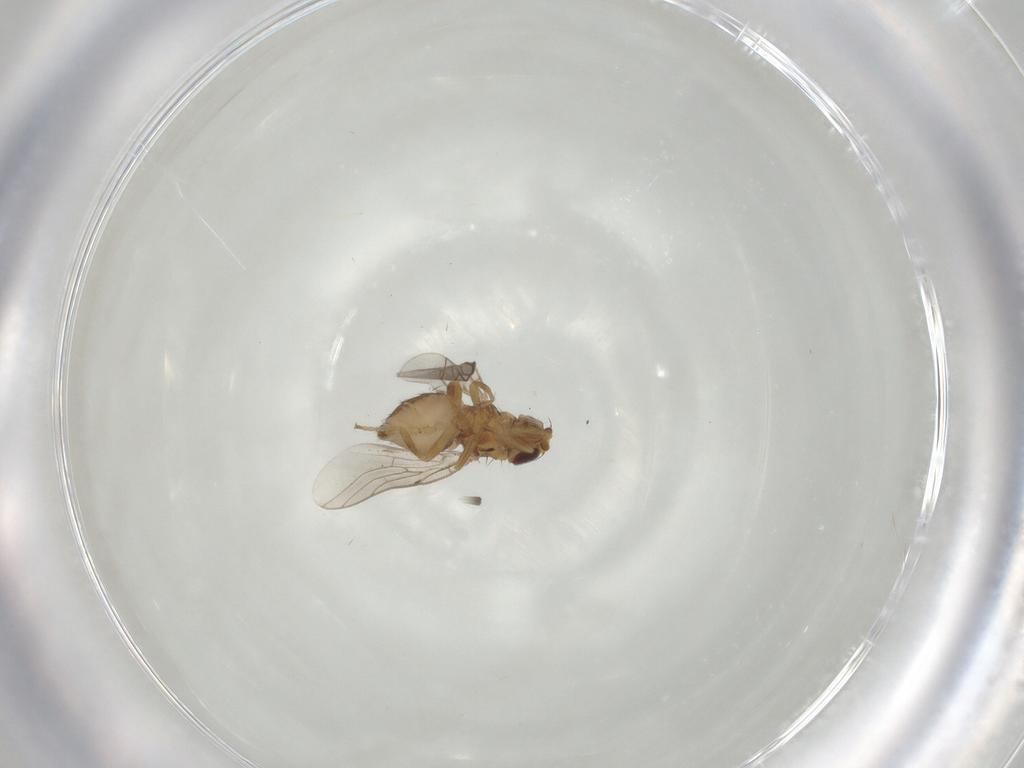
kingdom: Animalia
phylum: Arthropoda
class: Insecta
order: Diptera
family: Chloropidae
